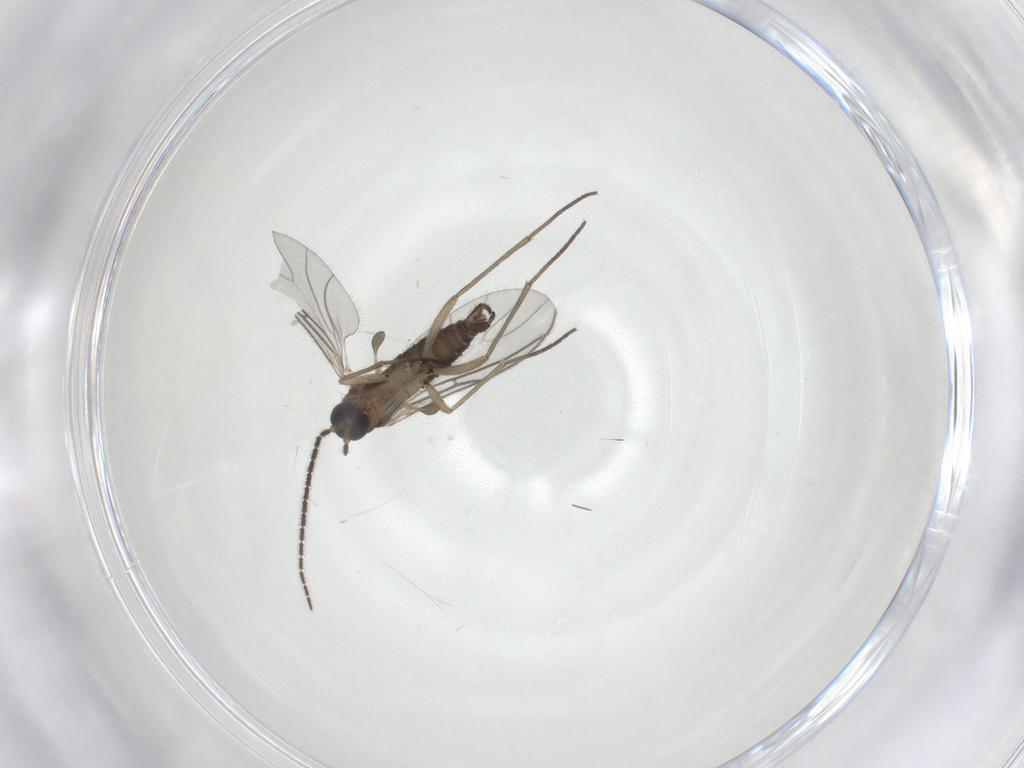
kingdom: Animalia
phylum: Arthropoda
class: Insecta
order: Diptera
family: Sciaridae
